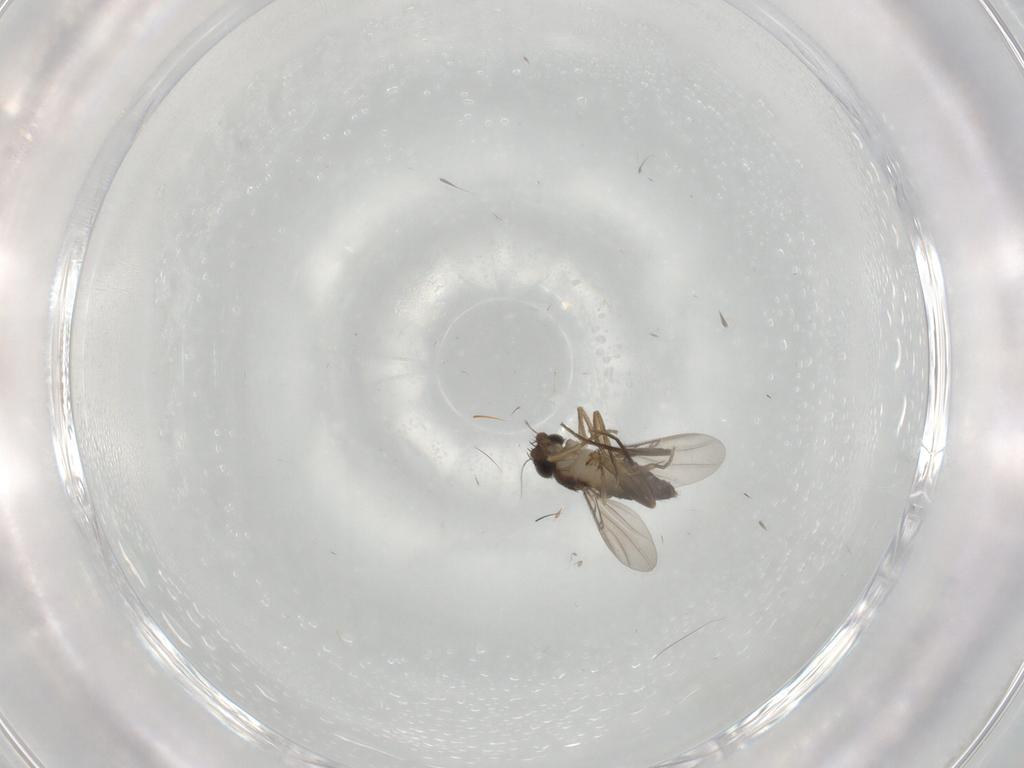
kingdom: Animalia
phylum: Arthropoda
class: Insecta
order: Diptera
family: Phoridae
